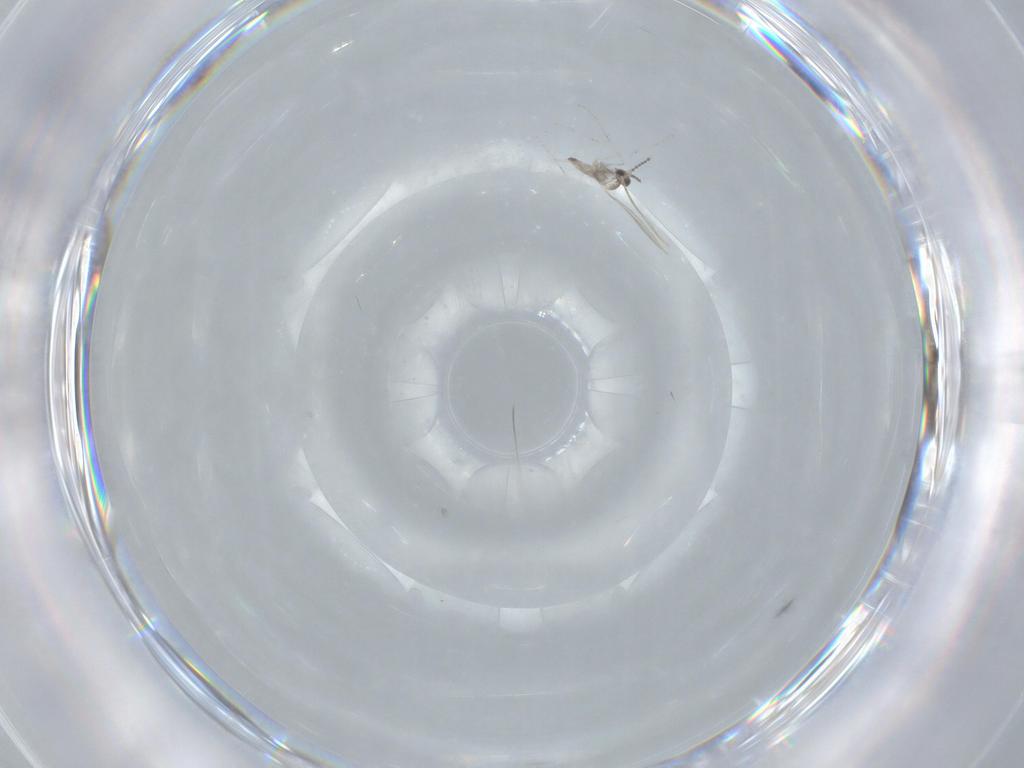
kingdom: Animalia
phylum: Arthropoda
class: Insecta
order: Diptera
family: Cecidomyiidae
